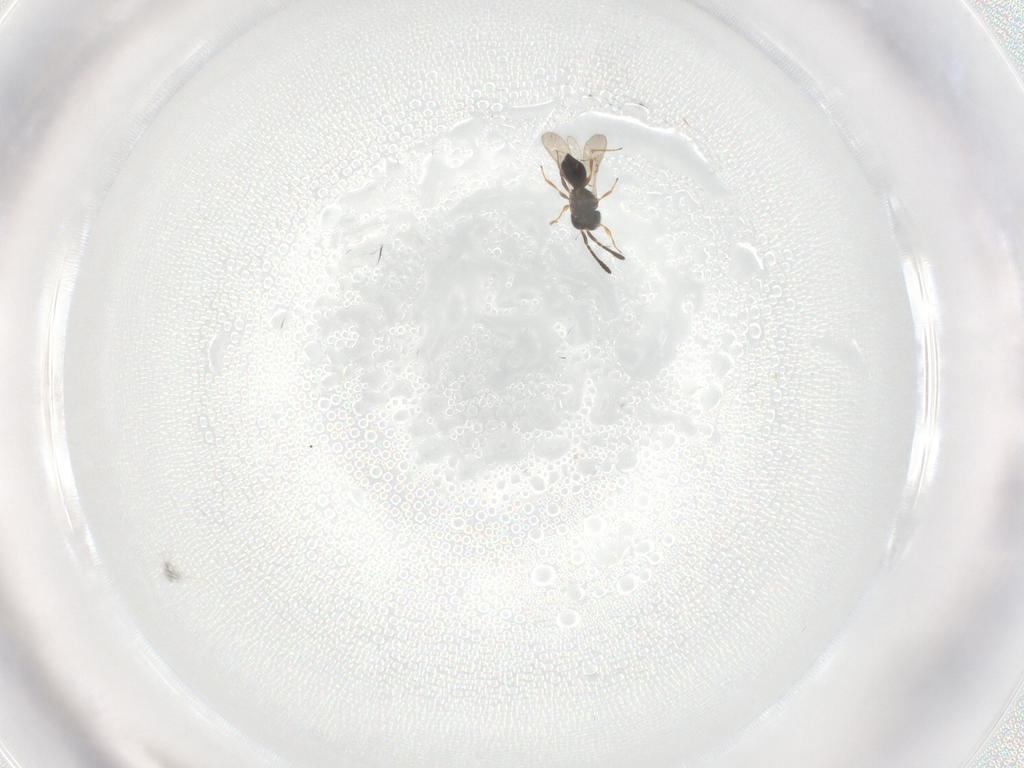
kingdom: Animalia
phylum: Arthropoda
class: Insecta
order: Hymenoptera
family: Scelionidae
